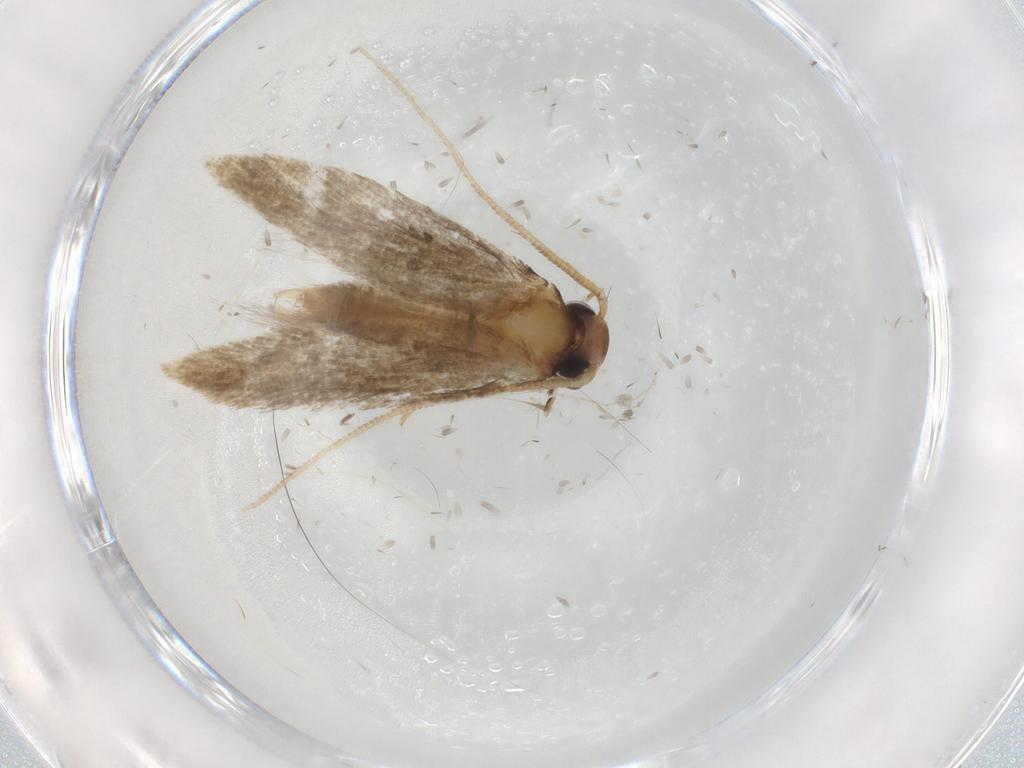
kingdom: Animalia
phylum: Arthropoda
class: Insecta
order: Lepidoptera
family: Coleophoridae
